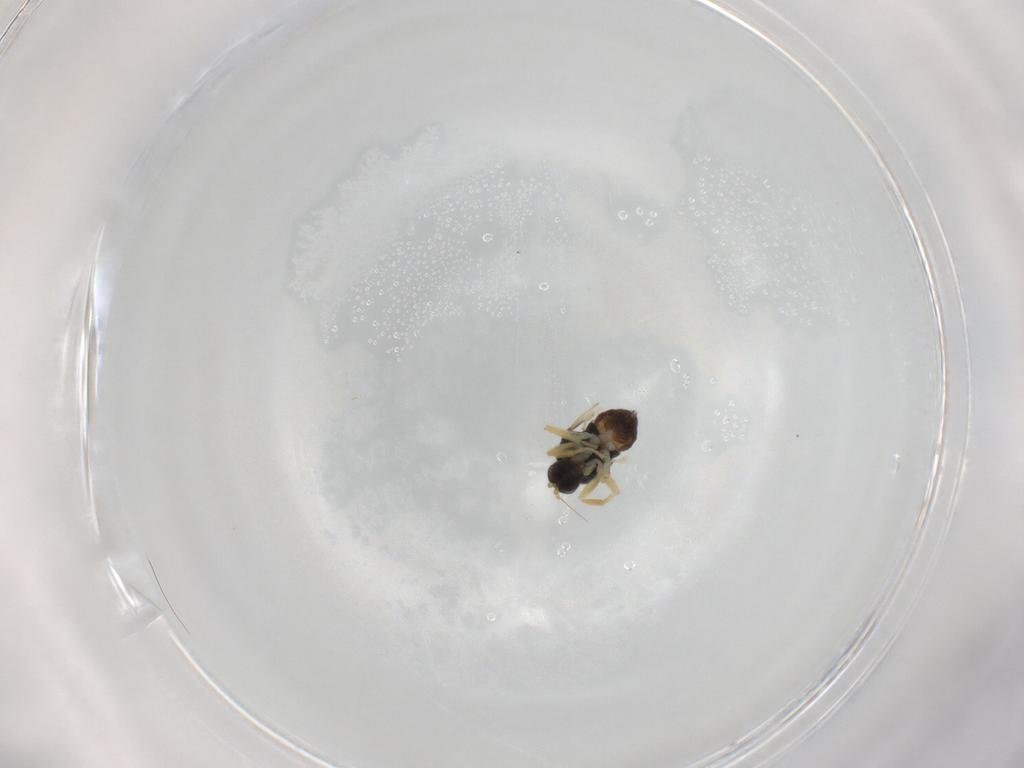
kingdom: Animalia
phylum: Arthropoda
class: Insecta
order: Diptera
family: Hybotidae
